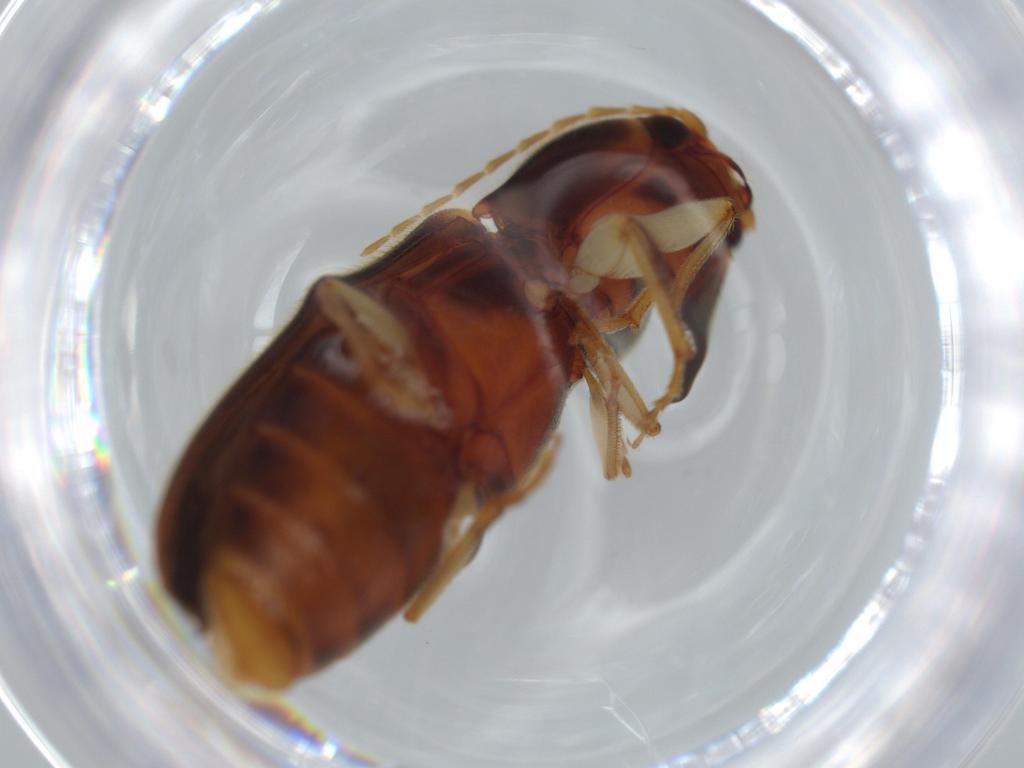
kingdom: Animalia
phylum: Arthropoda
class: Insecta
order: Coleoptera
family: Elateridae
